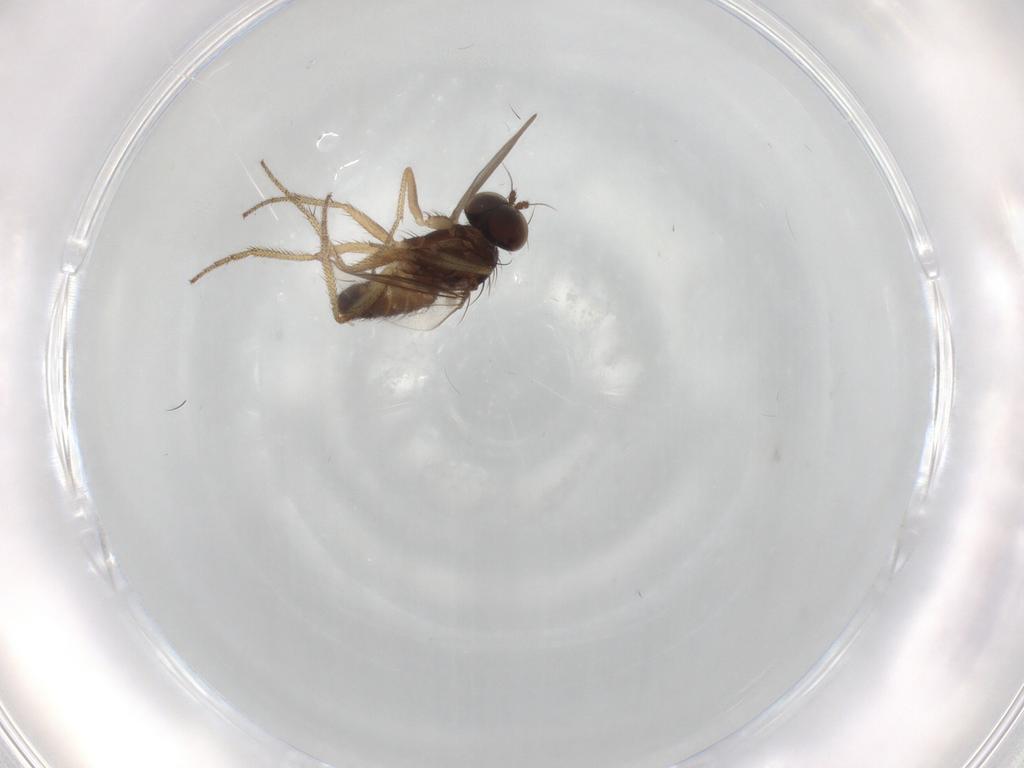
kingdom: Animalia
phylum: Arthropoda
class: Insecta
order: Diptera
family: Dolichopodidae
